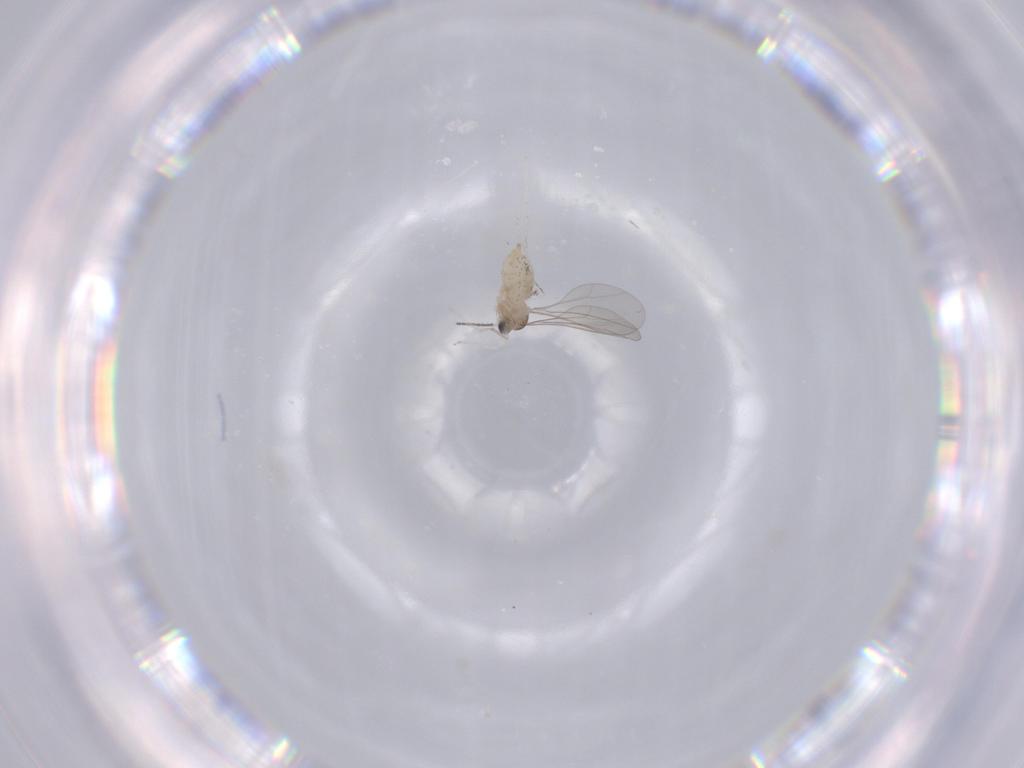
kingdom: Animalia
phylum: Arthropoda
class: Insecta
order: Diptera
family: Cecidomyiidae
